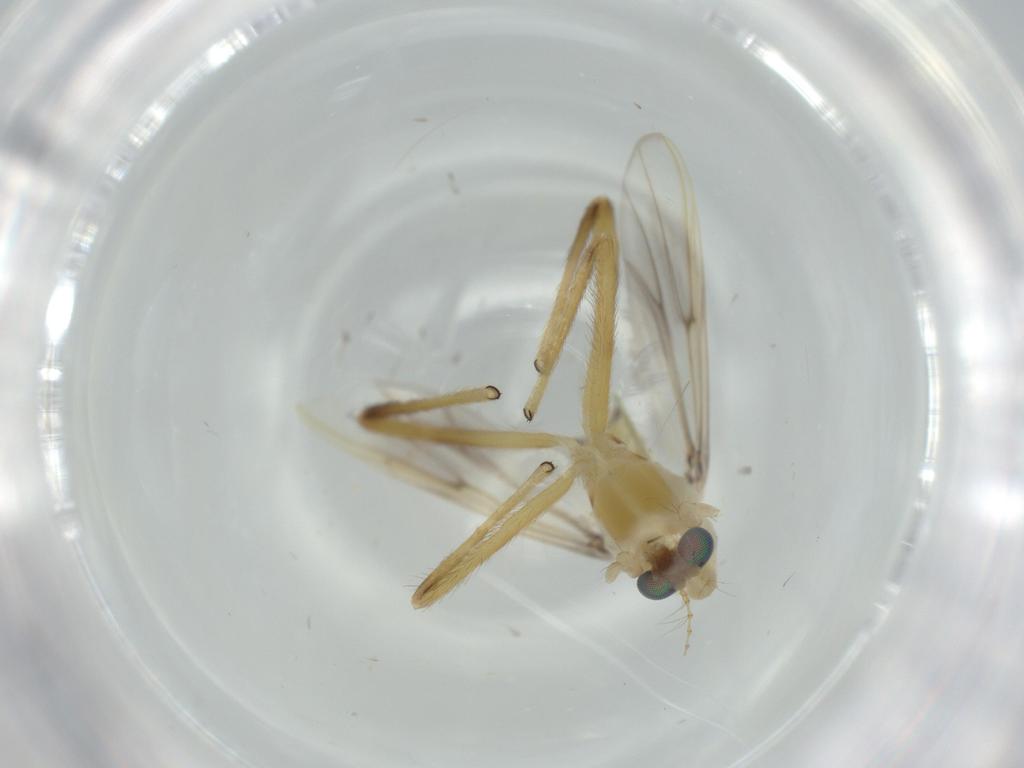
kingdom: Animalia
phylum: Arthropoda
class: Insecta
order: Diptera
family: Chironomidae
